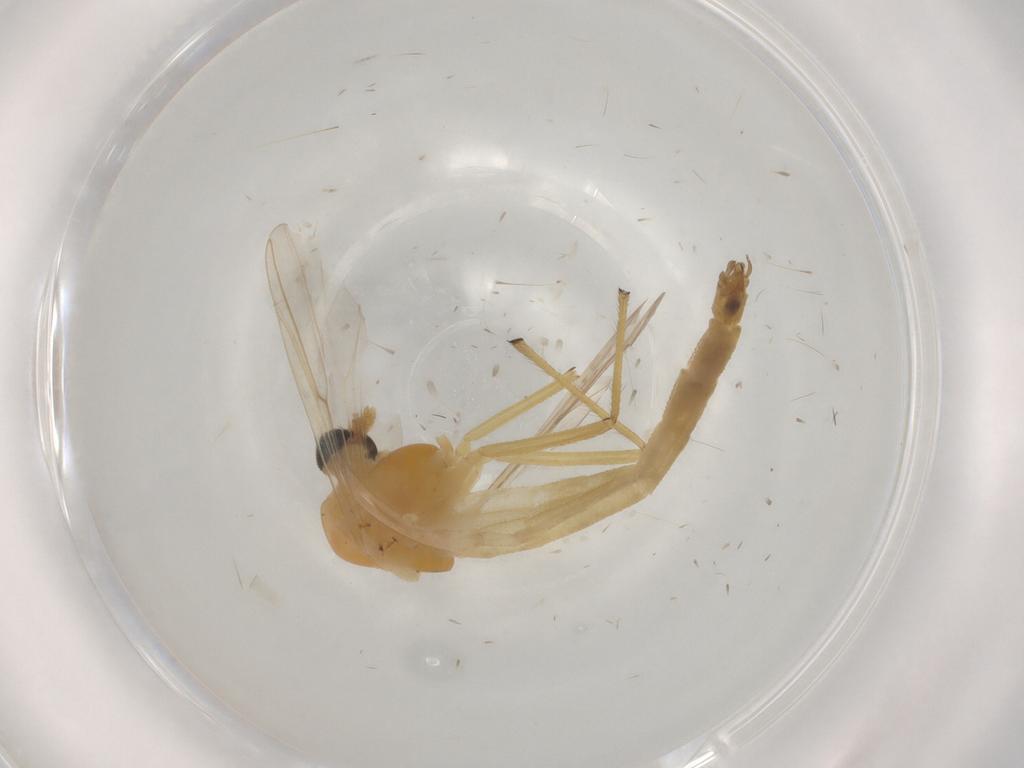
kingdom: Animalia
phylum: Arthropoda
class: Insecta
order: Diptera
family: Chironomidae
